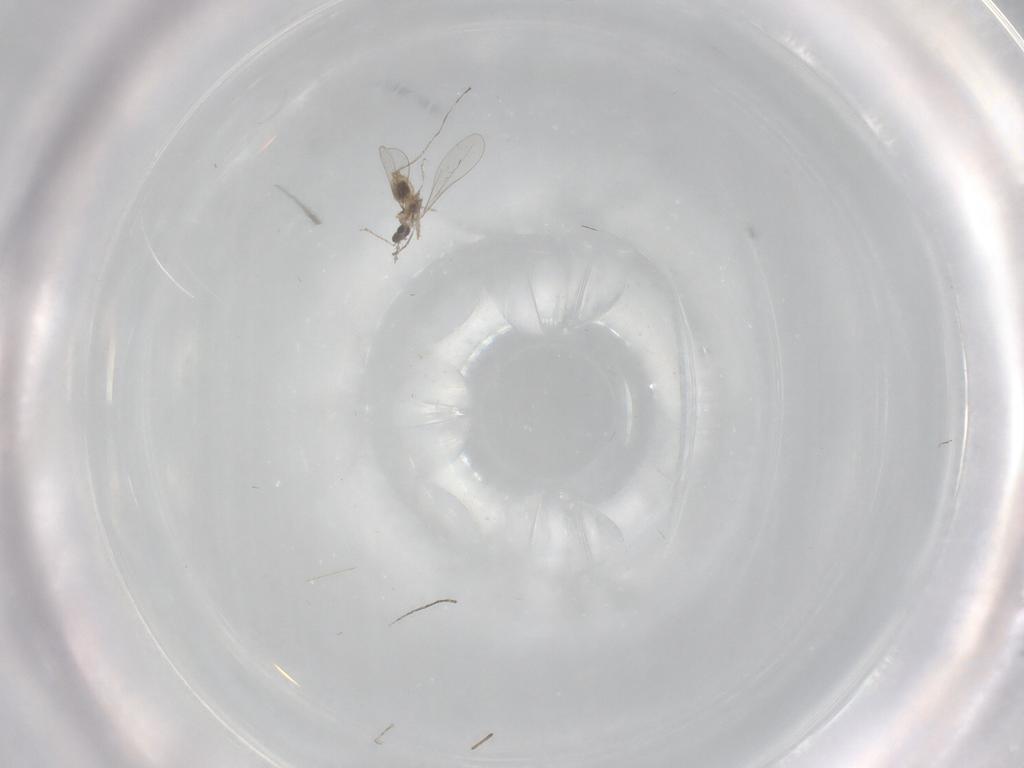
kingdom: Animalia
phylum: Arthropoda
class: Insecta
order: Diptera
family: Cecidomyiidae
